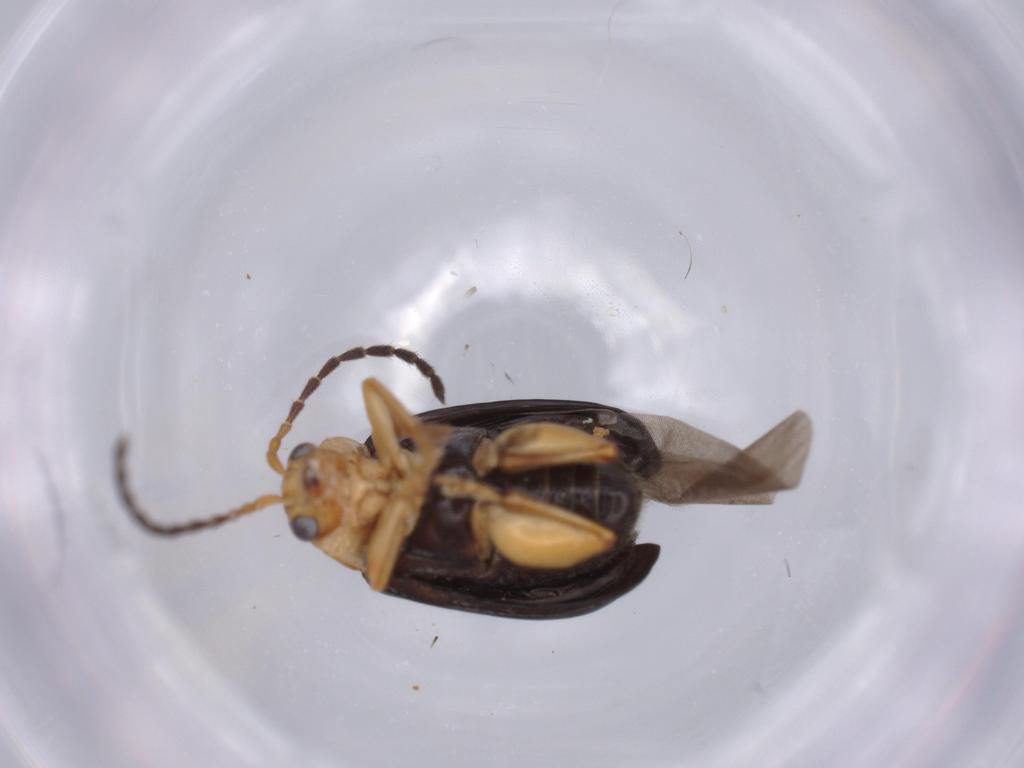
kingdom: Animalia
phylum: Arthropoda
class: Insecta
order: Coleoptera
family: Chrysomelidae
